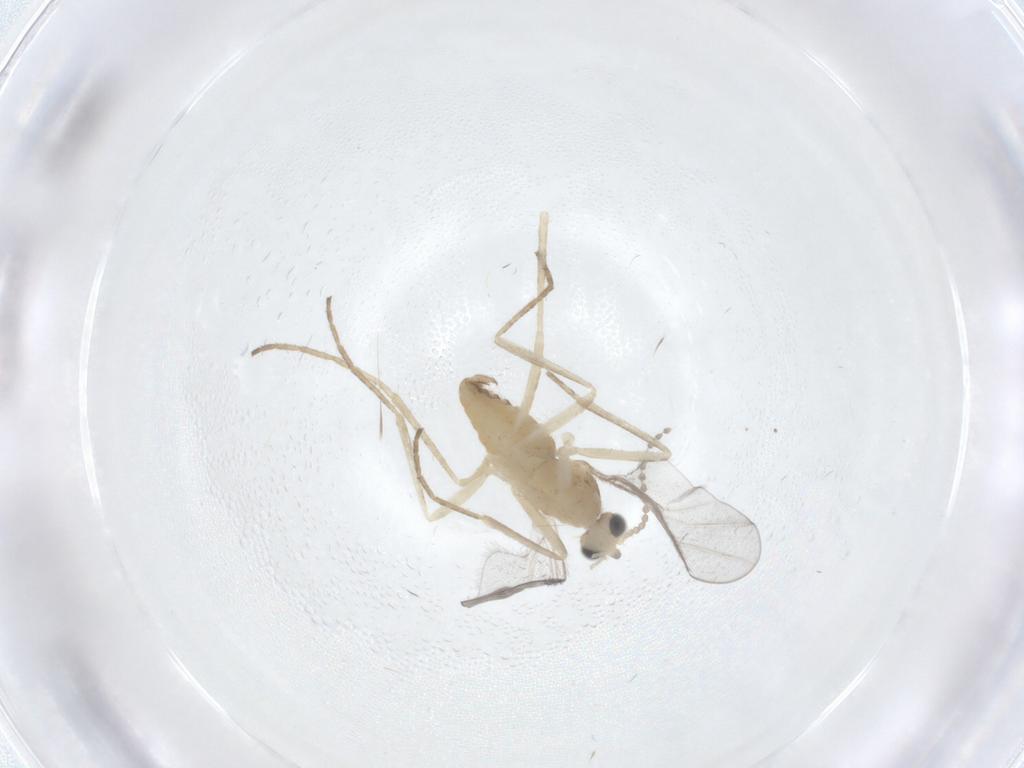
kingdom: Animalia
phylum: Arthropoda
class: Insecta
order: Diptera
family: Cecidomyiidae
